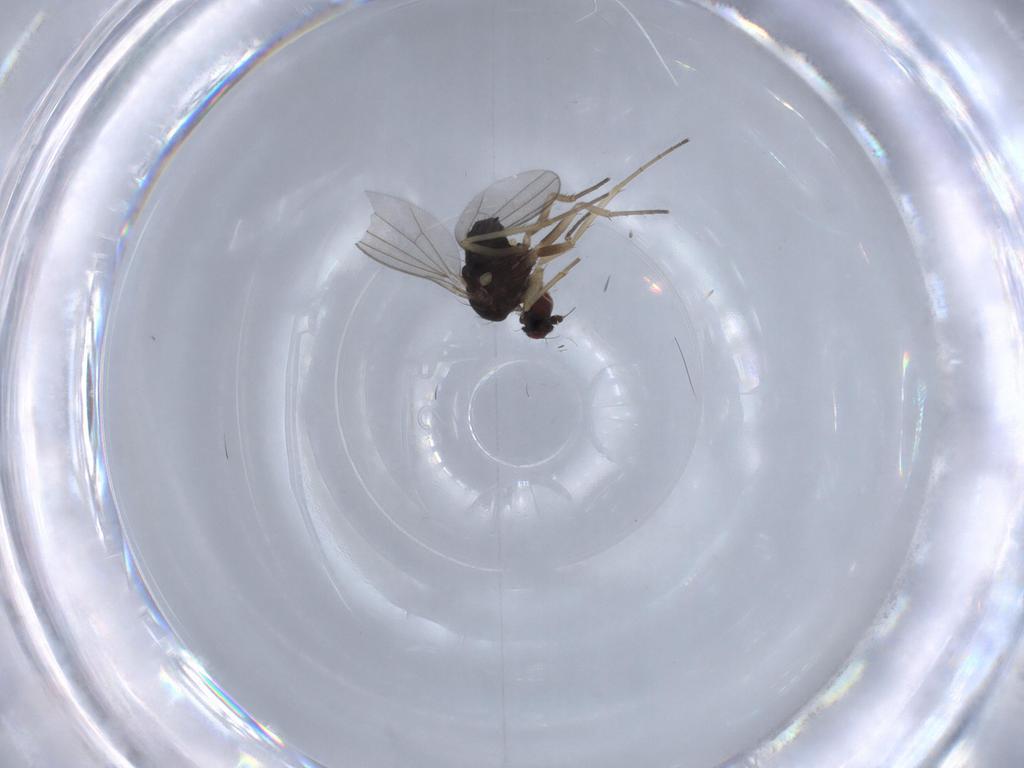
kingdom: Animalia
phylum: Arthropoda
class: Insecta
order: Diptera
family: Dolichopodidae
